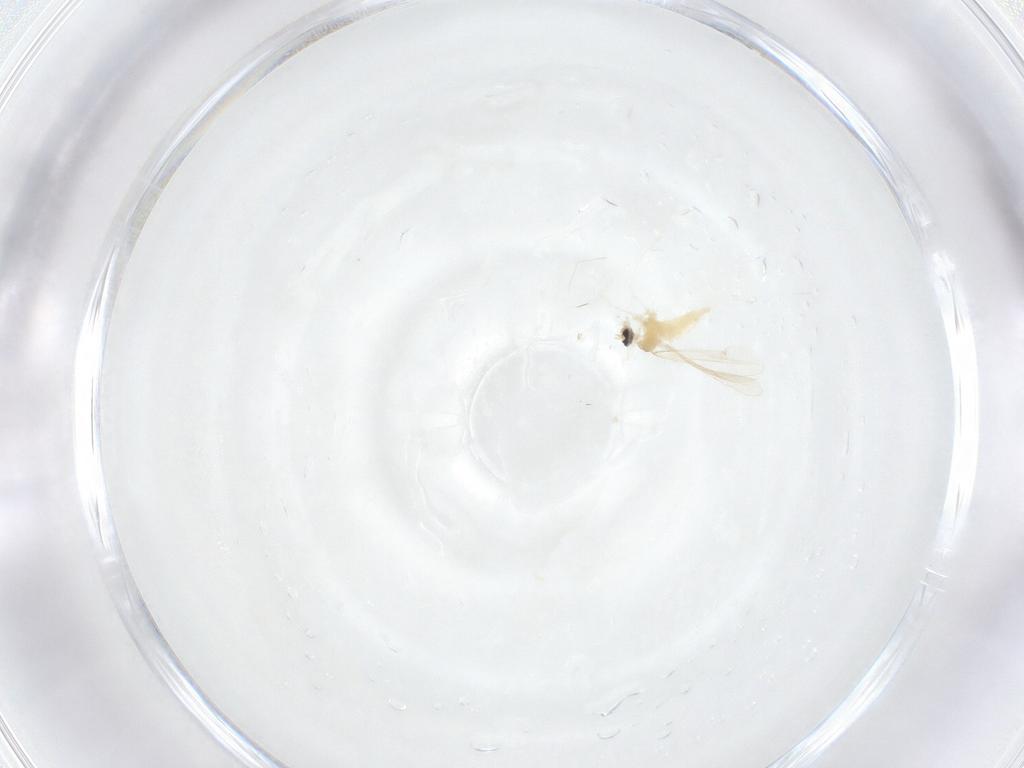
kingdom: Animalia
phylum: Arthropoda
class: Insecta
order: Diptera
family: Cecidomyiidae
